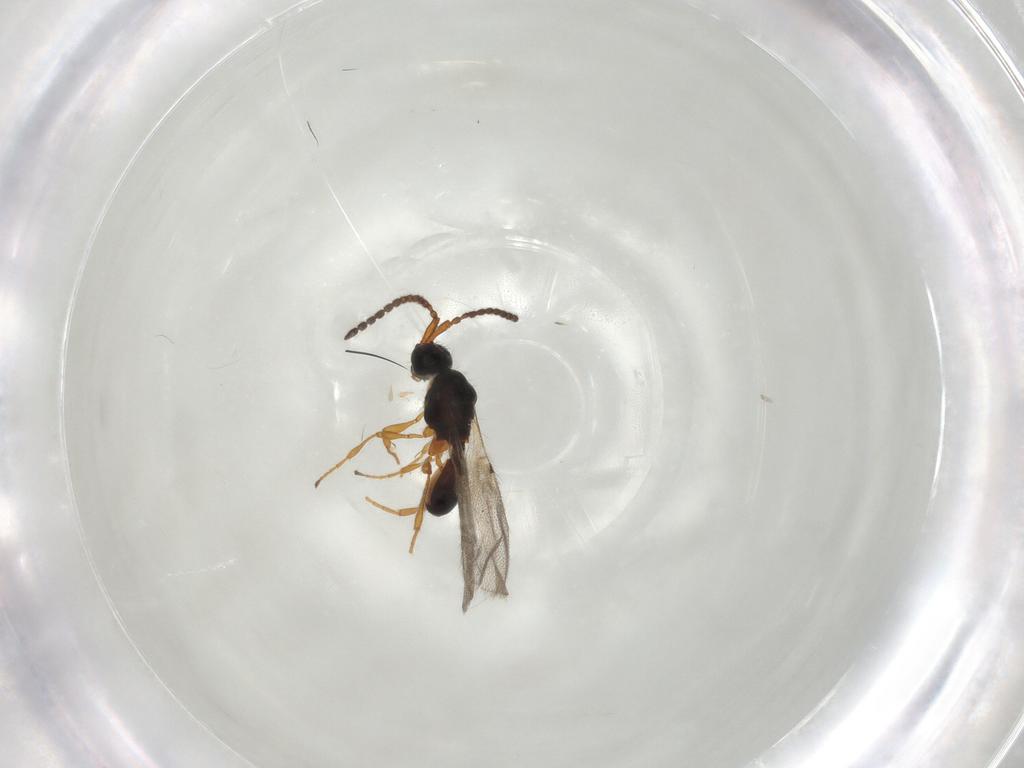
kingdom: Animalia
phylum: Arthropoda
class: Insecta
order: Hymenoptera
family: Diapriidae
